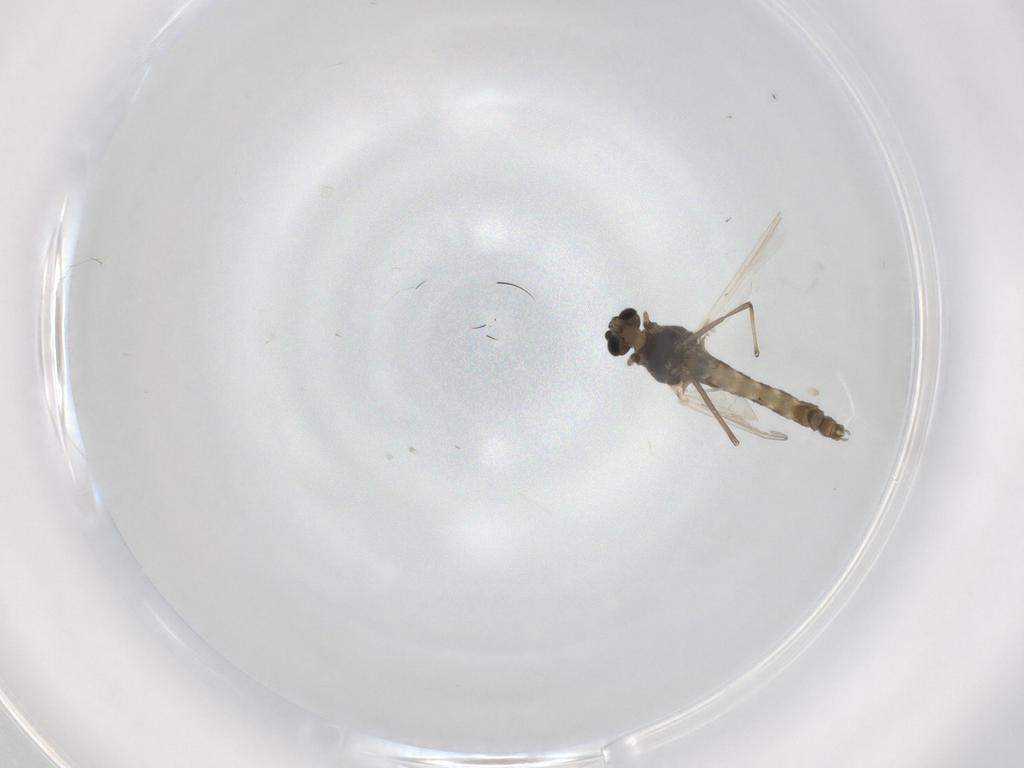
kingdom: Animalia
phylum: Arthropoda
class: Insecta
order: Diptera
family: Chironomidae
